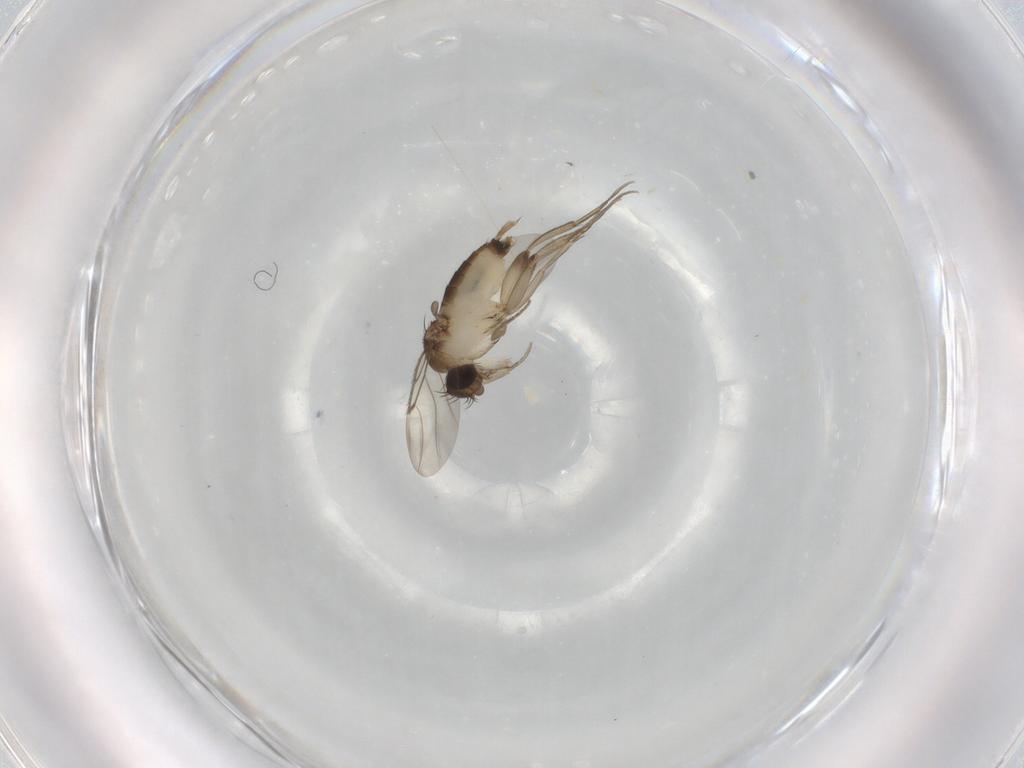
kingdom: Animalia
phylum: Arthropoda
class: Insecta
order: Diptera
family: Phoridae
